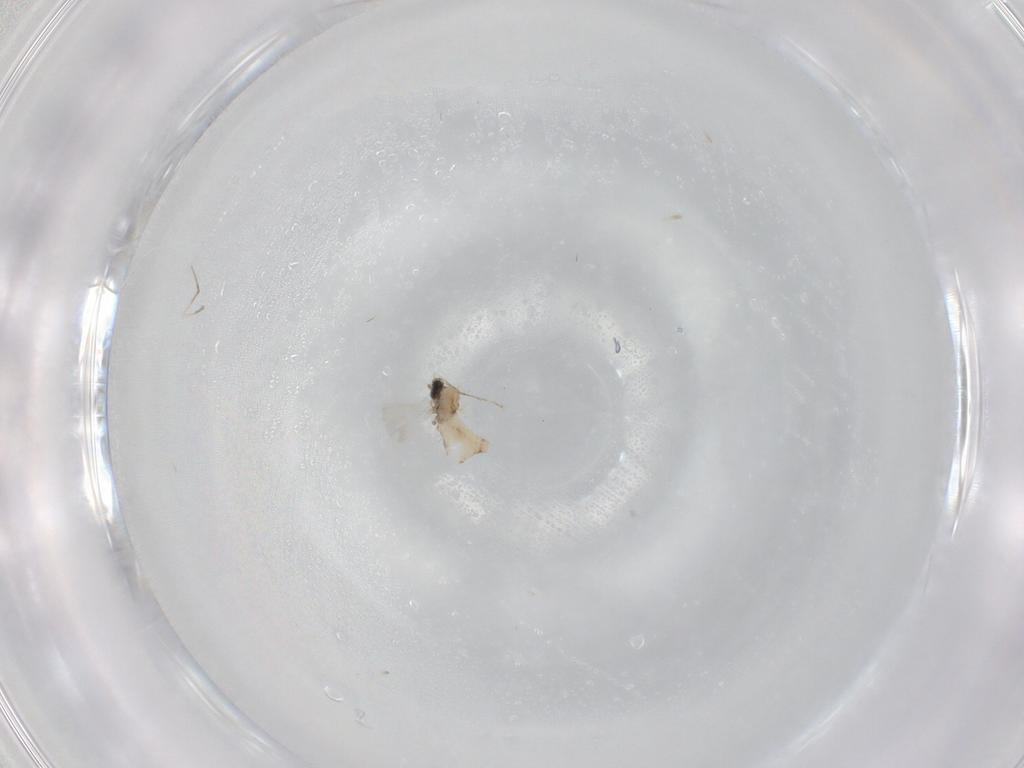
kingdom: Animalia
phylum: Arthropoda
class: Insecta
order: Diptera
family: Cecidomyiidae
